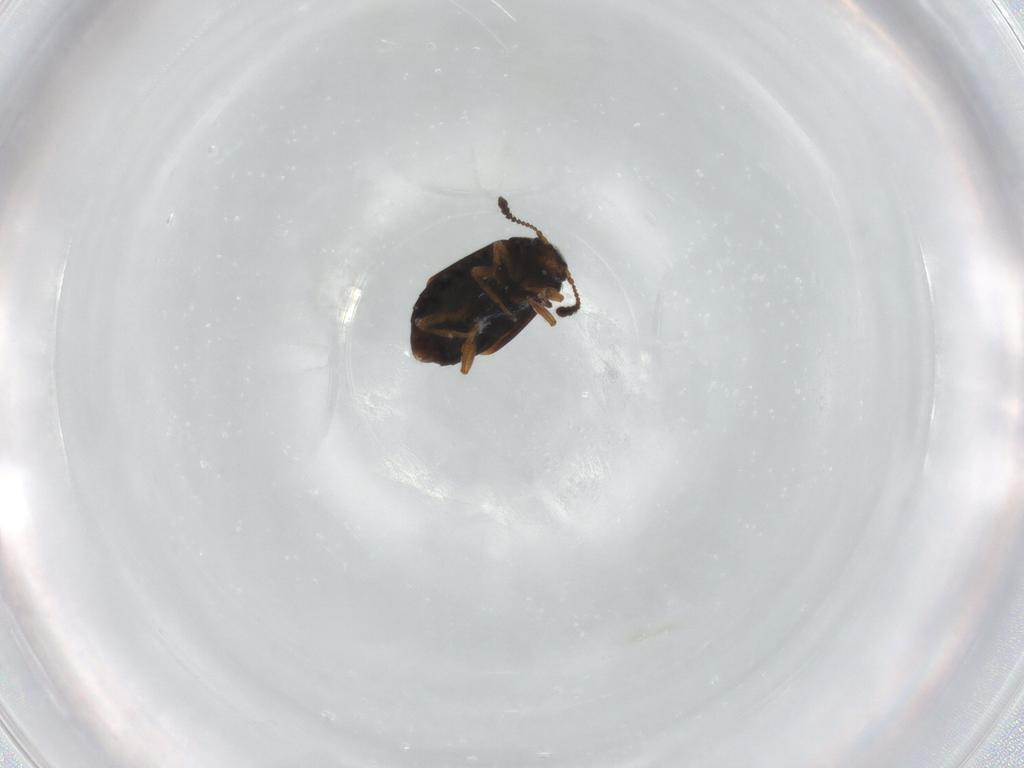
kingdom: Animalia
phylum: Arthropoda
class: Insecta
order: Coleoptera
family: Staphylinidae
